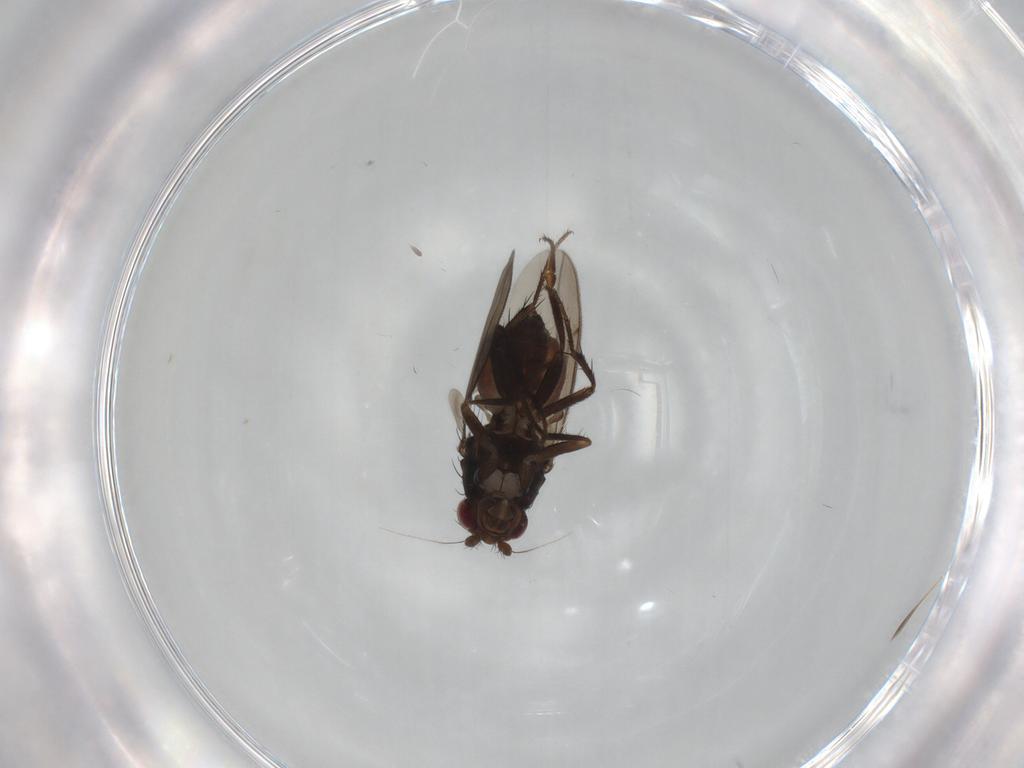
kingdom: Animalia
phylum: Arthropoda
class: Insecta
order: Diptera
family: Sphaeroceridae
